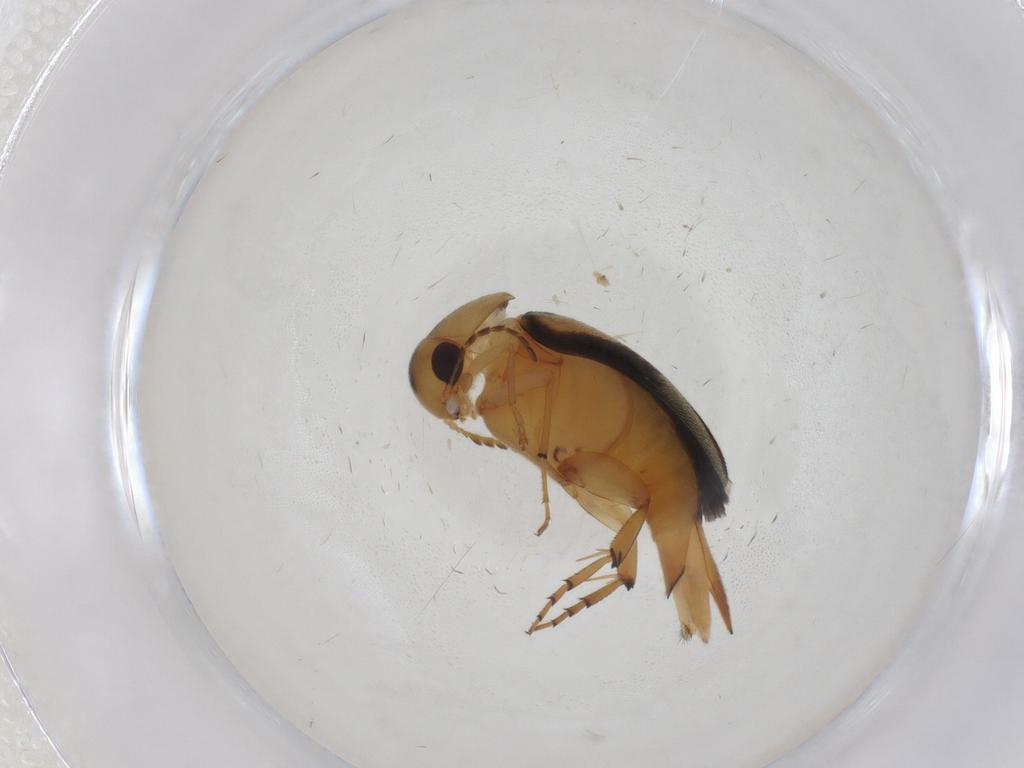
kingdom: Animalia
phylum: Arthropoda
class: Insecta
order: Coleoptera
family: Mordellidae
